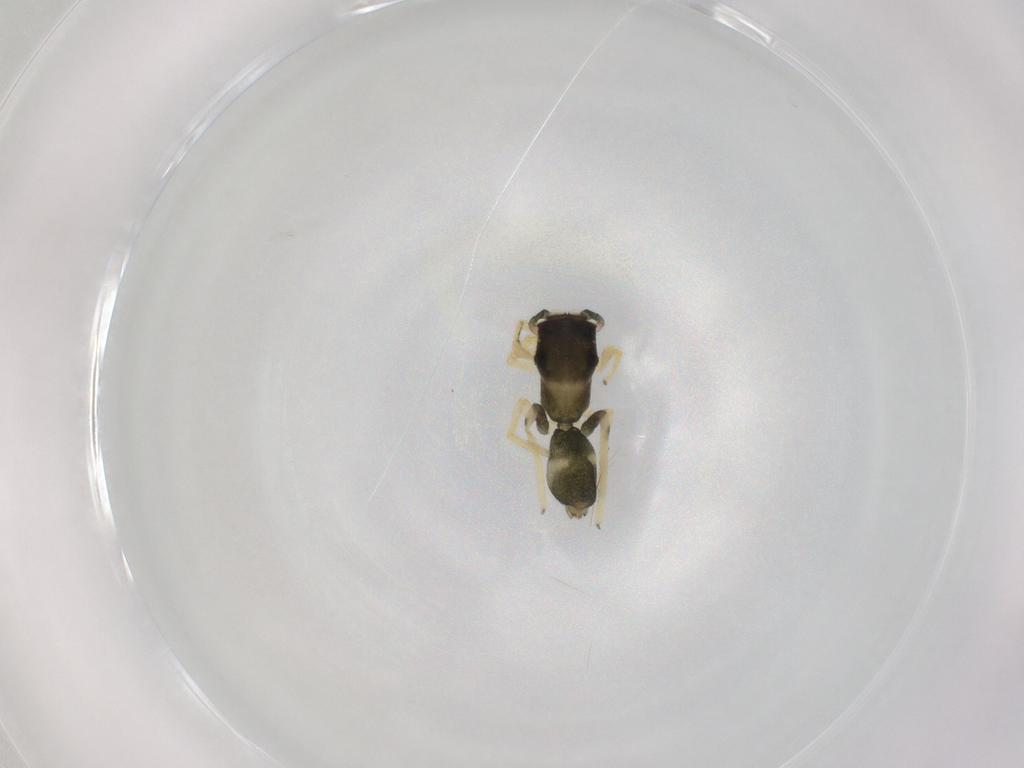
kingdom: Animalia
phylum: Arthropoda
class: Arachnida
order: Araneae
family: Salticidae
